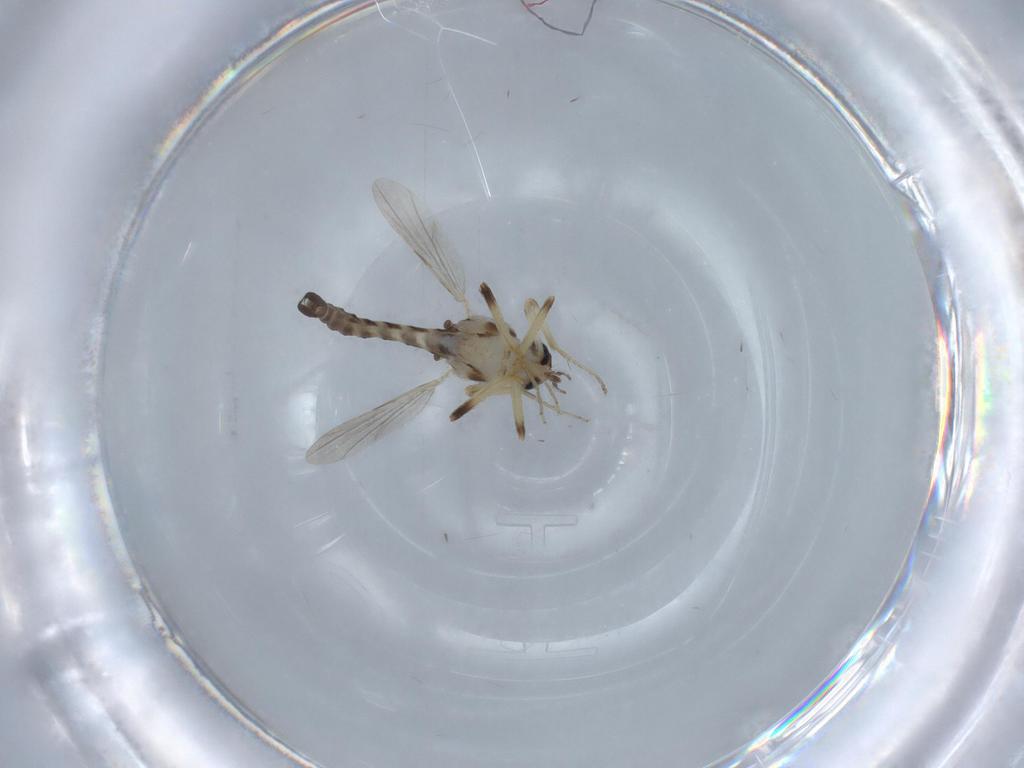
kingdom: Animalia
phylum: Arthropoda
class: Insecta
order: Diptera
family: Ceratopogonidae
